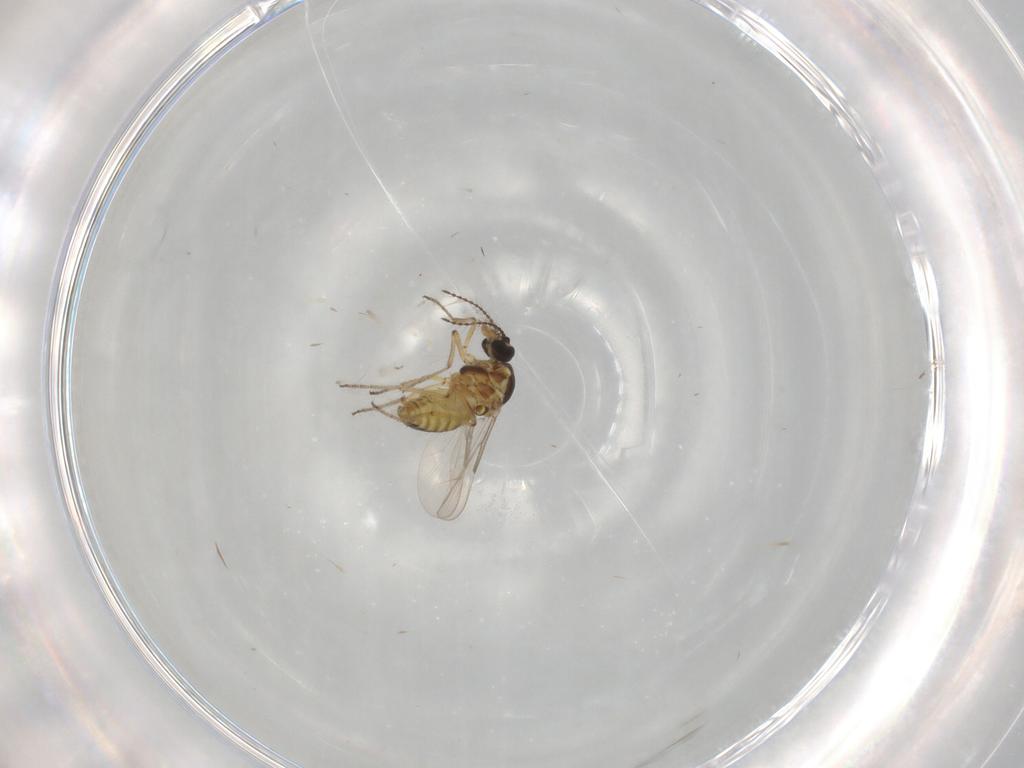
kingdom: Animalia
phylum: Arthropoda
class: Insecta
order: Diptera
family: Ceratopogonidae
